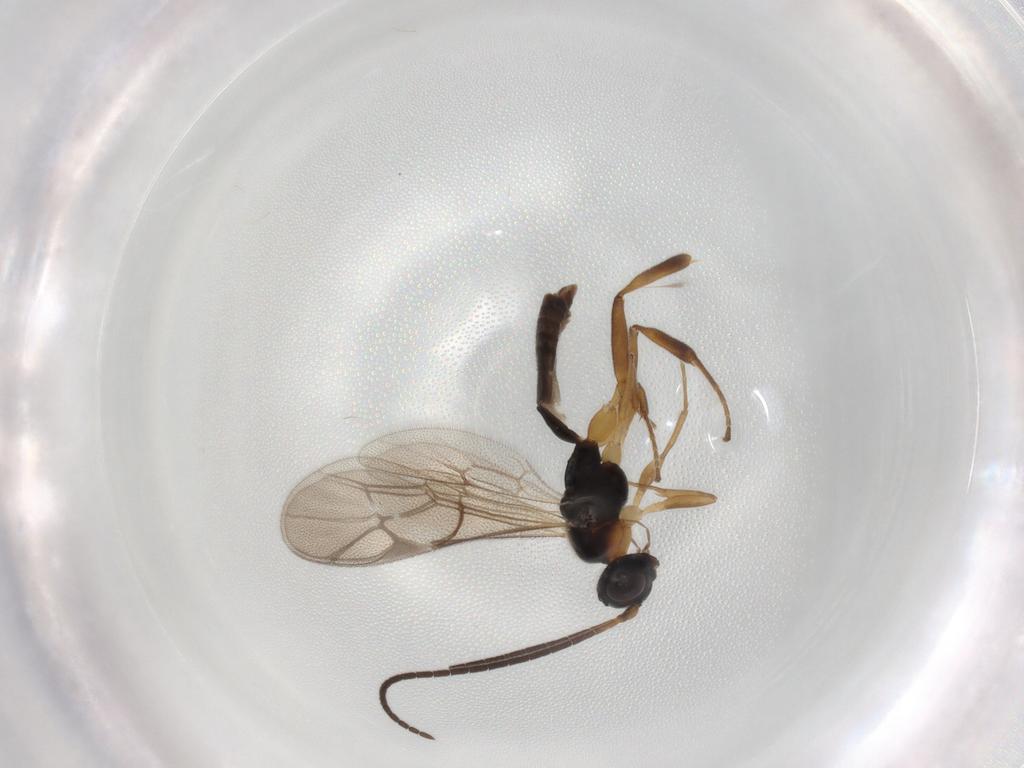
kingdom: Animalia
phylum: Arthropoda
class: Insecta
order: Hymenoptera
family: Ichneumonidae
